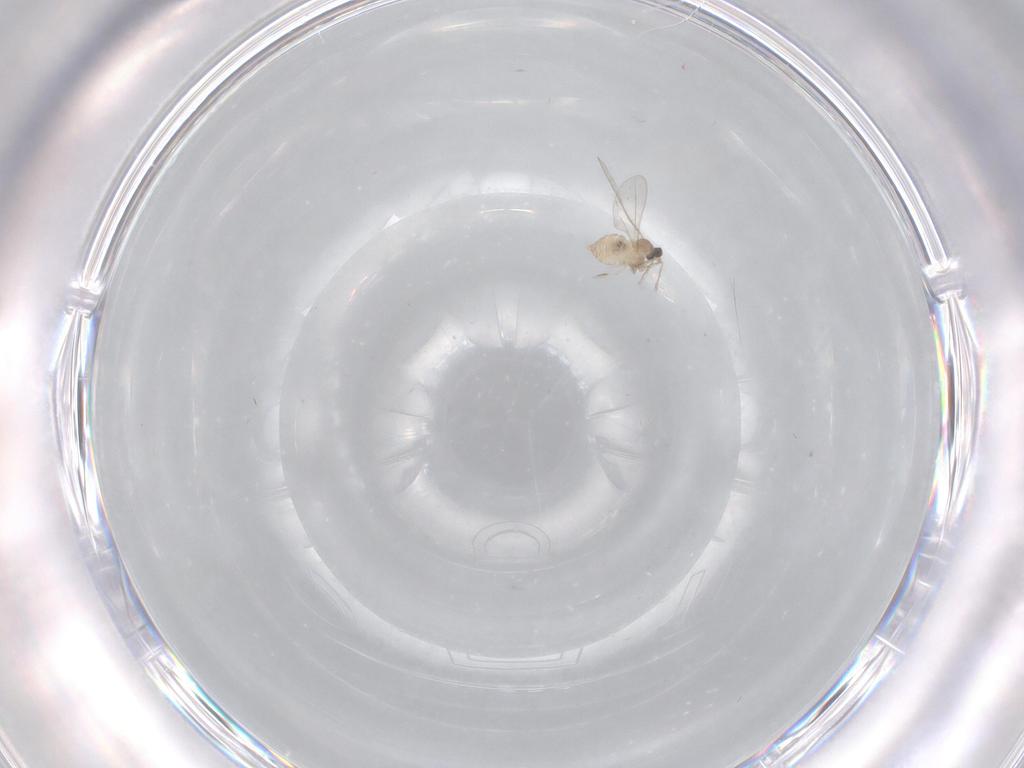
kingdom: Animalia
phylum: Arthropoda
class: Insecta
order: Diptera
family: Cecidomyiidae
